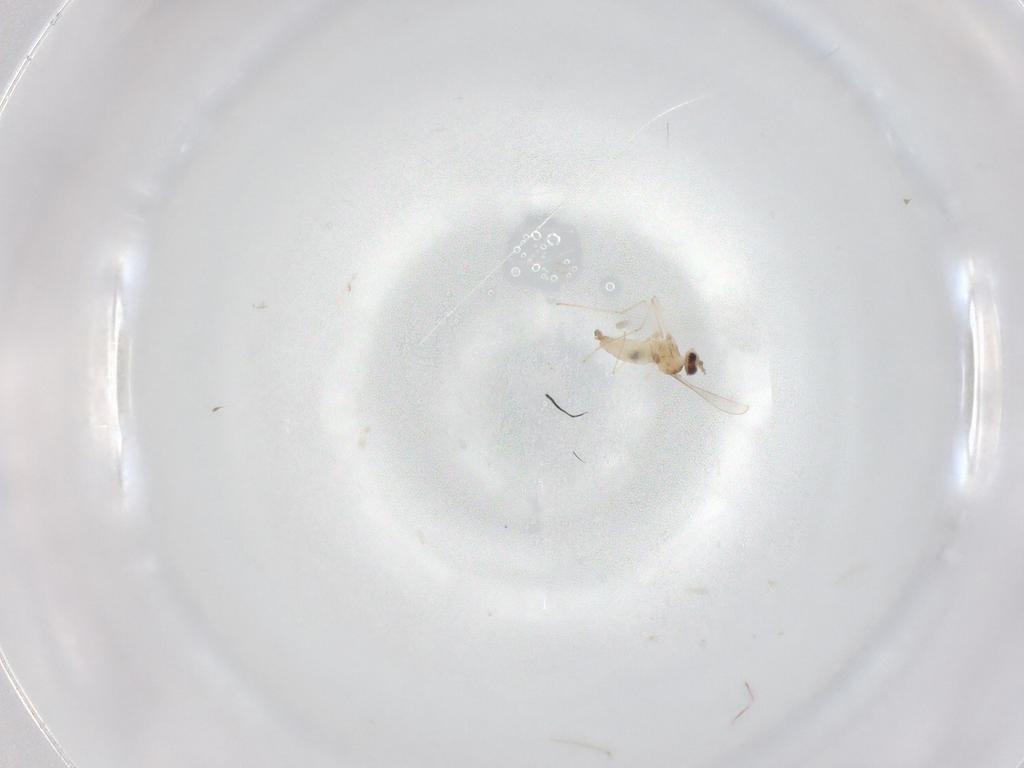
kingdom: Animalia
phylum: Arthropoda
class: Insecta
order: Diptera
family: Cecidomyiidae
